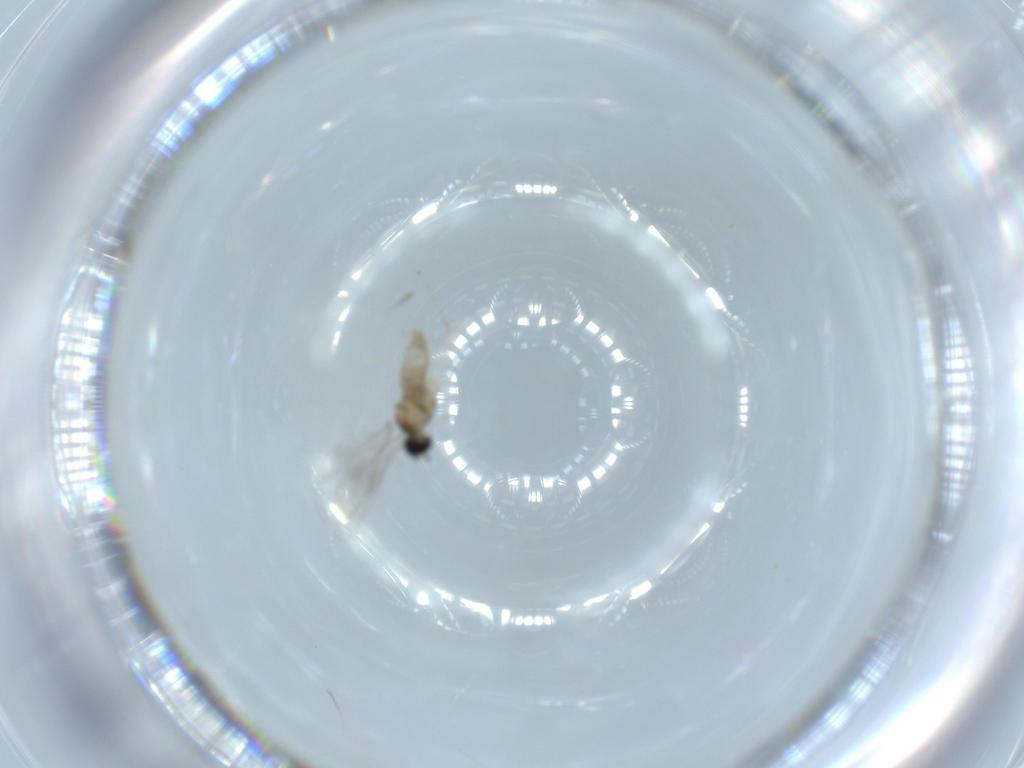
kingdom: Animalia
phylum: Arthropoda
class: Insecta
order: Diptera
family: Cecidomyiidae
